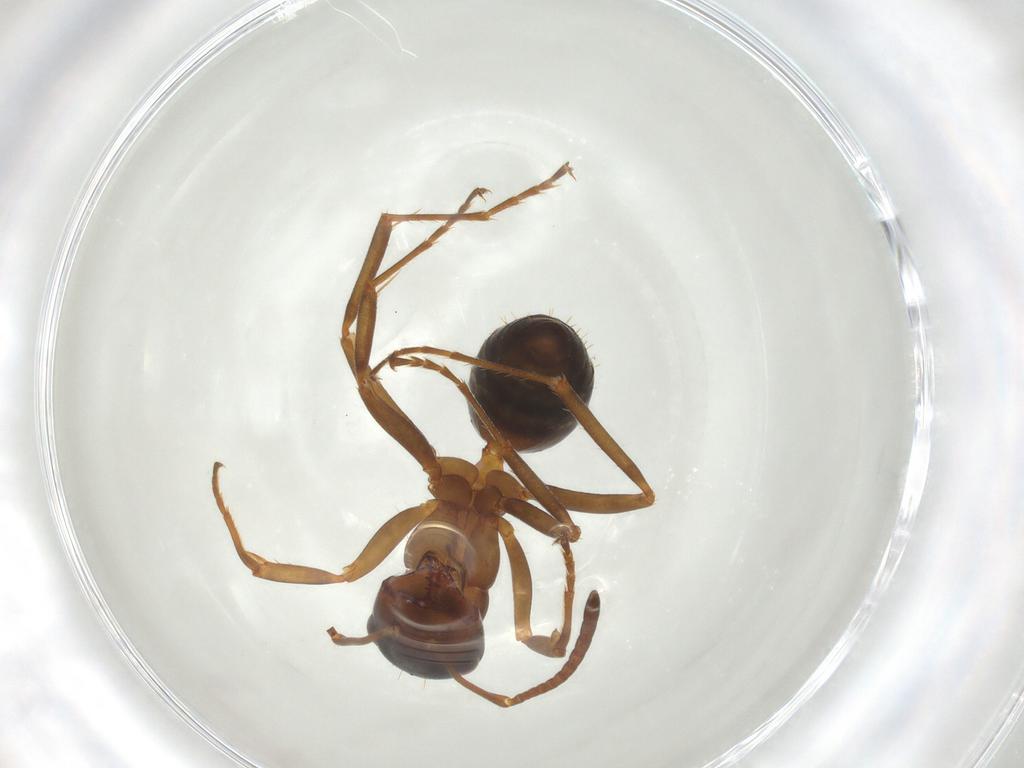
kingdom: Animalia
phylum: Arthropoda
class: Insecta
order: Hymenoptera
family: Formicidae
